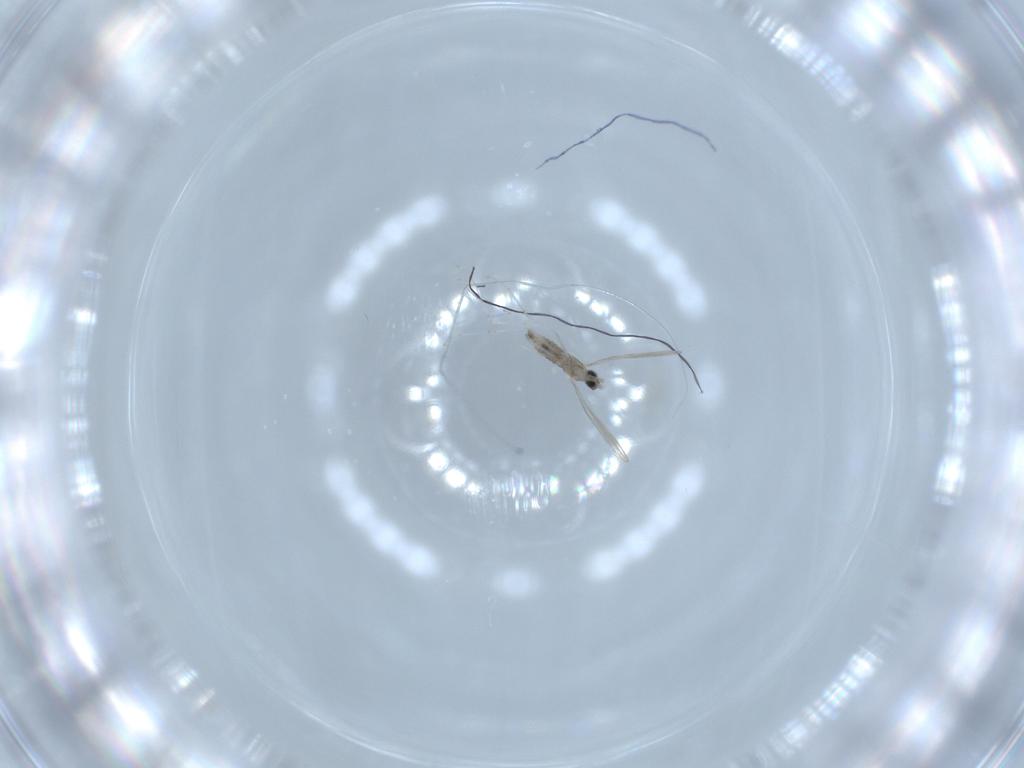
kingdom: Animalia
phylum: Arthropoda
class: Insecta
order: Diptera
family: Cecidomyiidae
